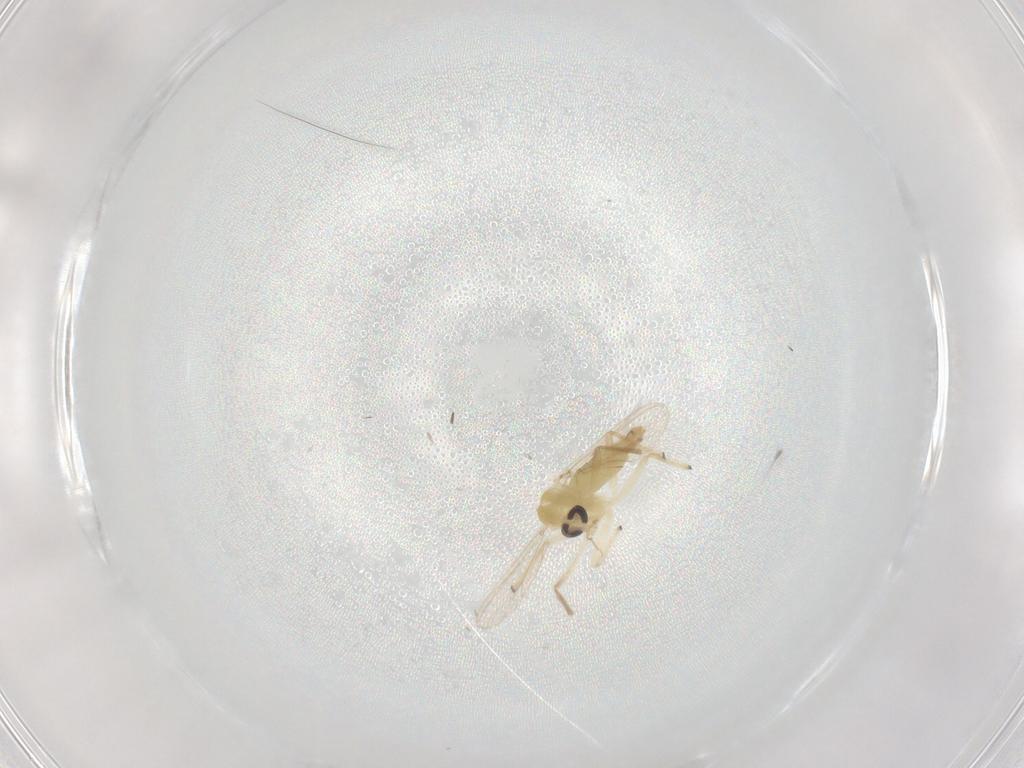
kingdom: Animalia
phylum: Arthropoda
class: Insecta
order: Diptera
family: Chironomidae
